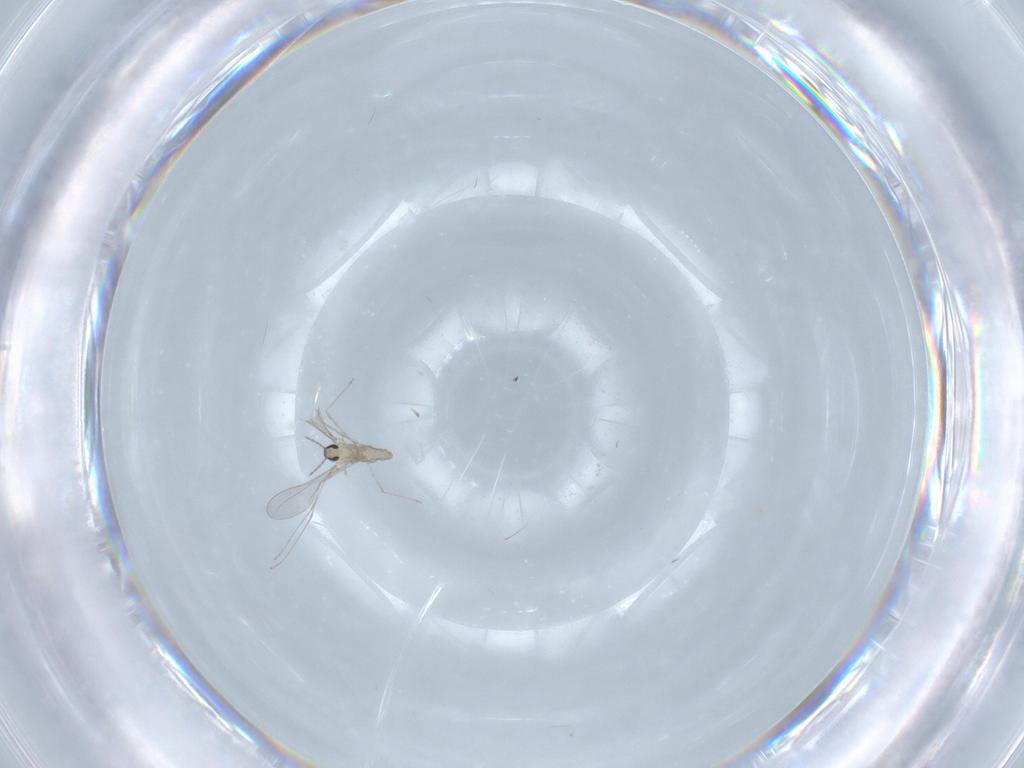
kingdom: Animalia
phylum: Arthropoda
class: Insecta
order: Diptera
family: Cecidomyiidae
